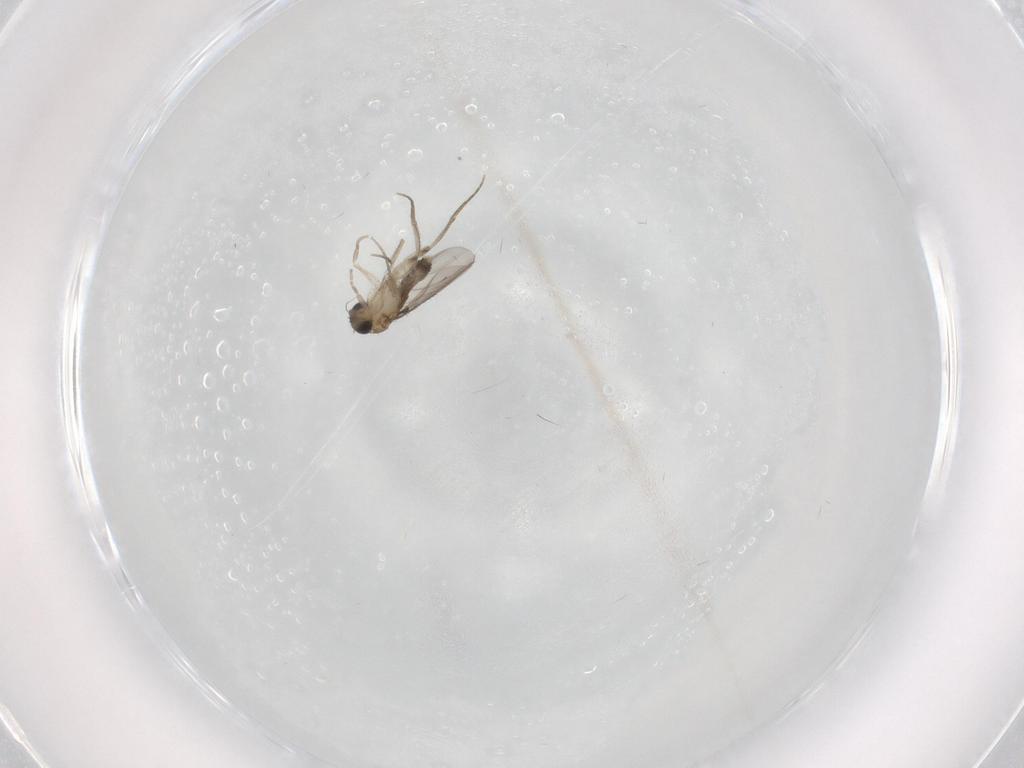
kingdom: Animalia
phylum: Arthropoda
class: Insecta
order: Diptera
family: Phoridae
